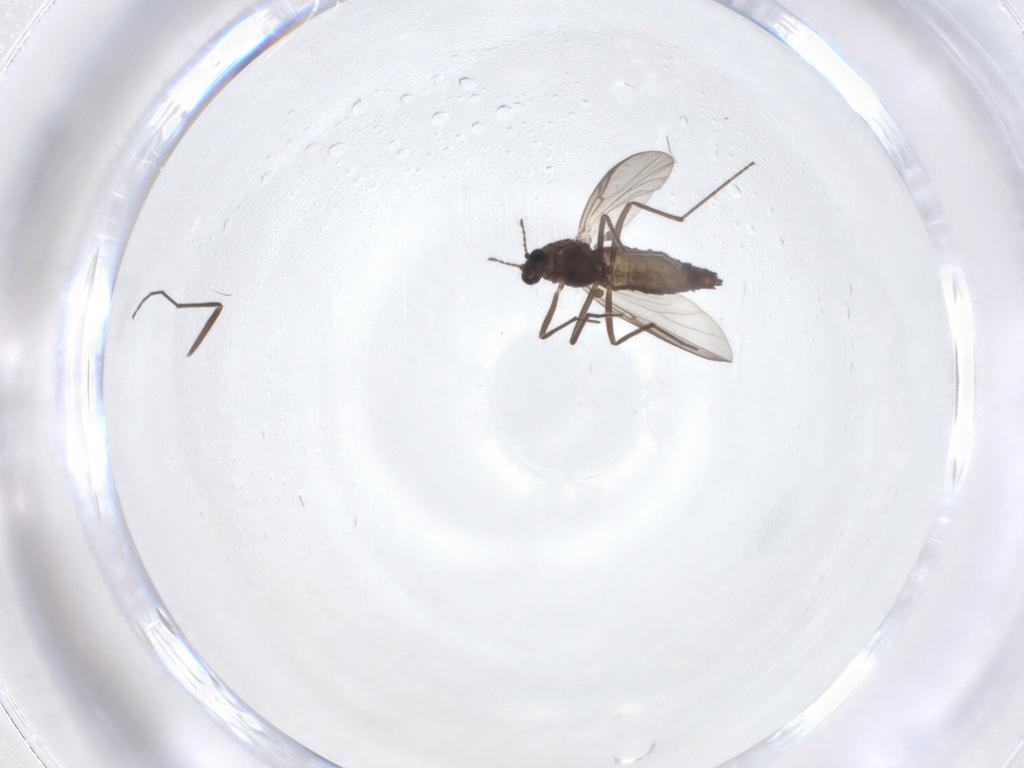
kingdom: Animalia
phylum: Arthropoda
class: Insecta
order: Diptera
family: Chironomidae
